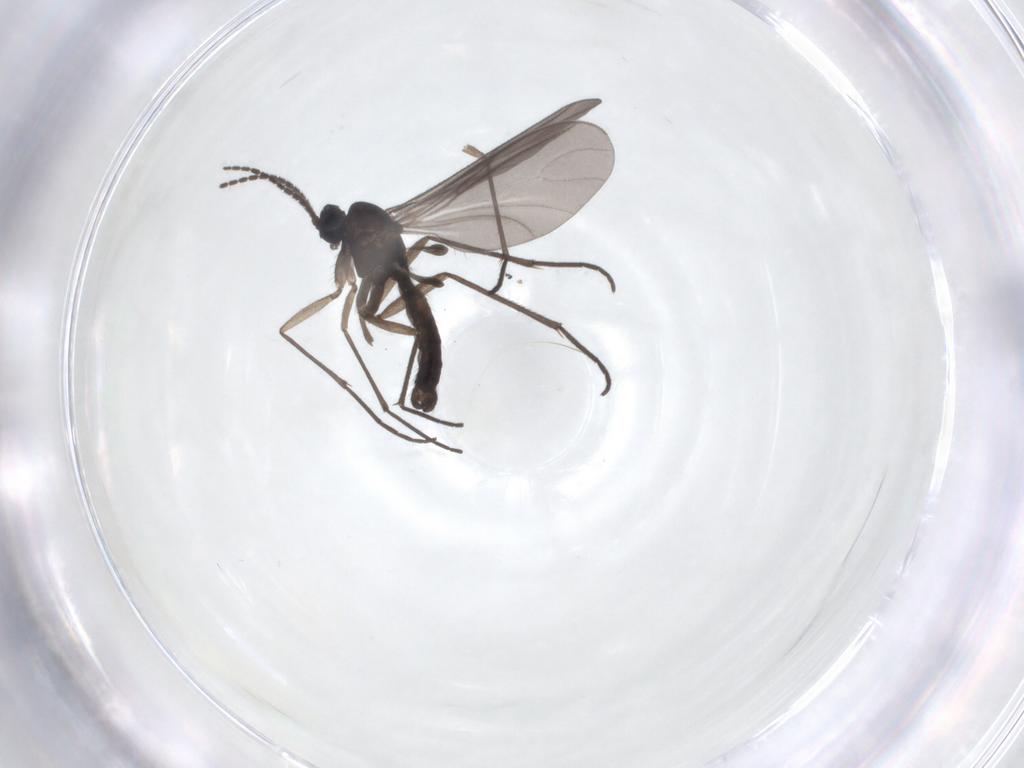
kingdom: Animalia
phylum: Arthropoda
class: Insecta
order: Diptera
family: Sciaridae
